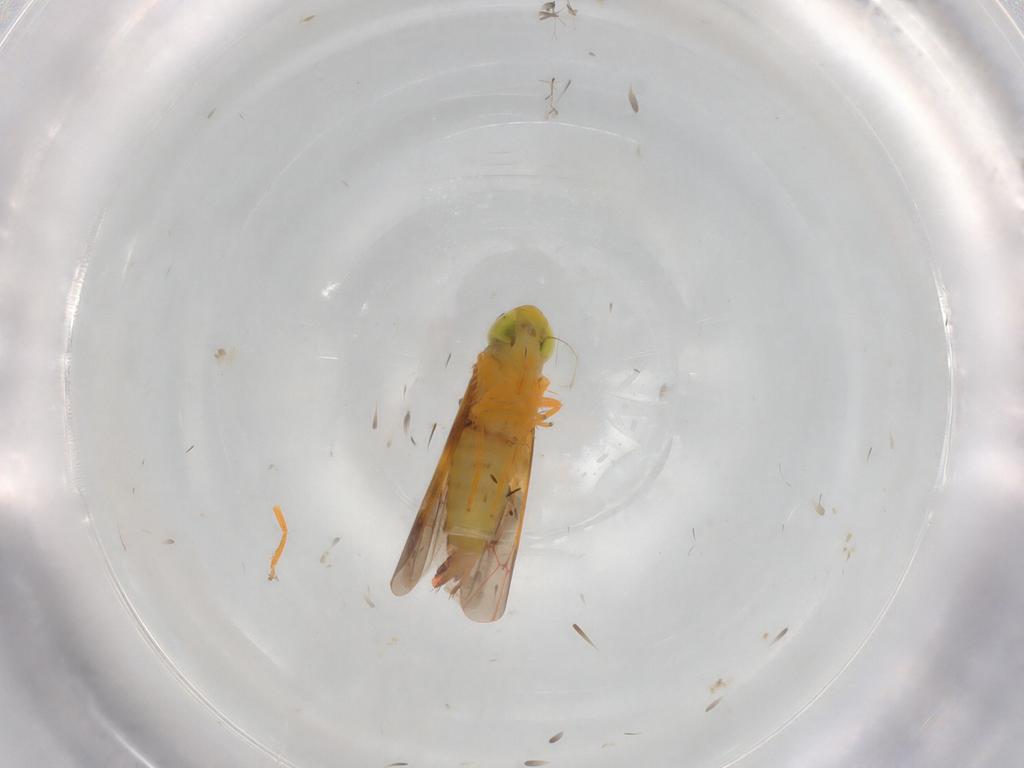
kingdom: Animalia
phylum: Arthropoda
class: Insecta
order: Hemiptera
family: Cicadellidae
